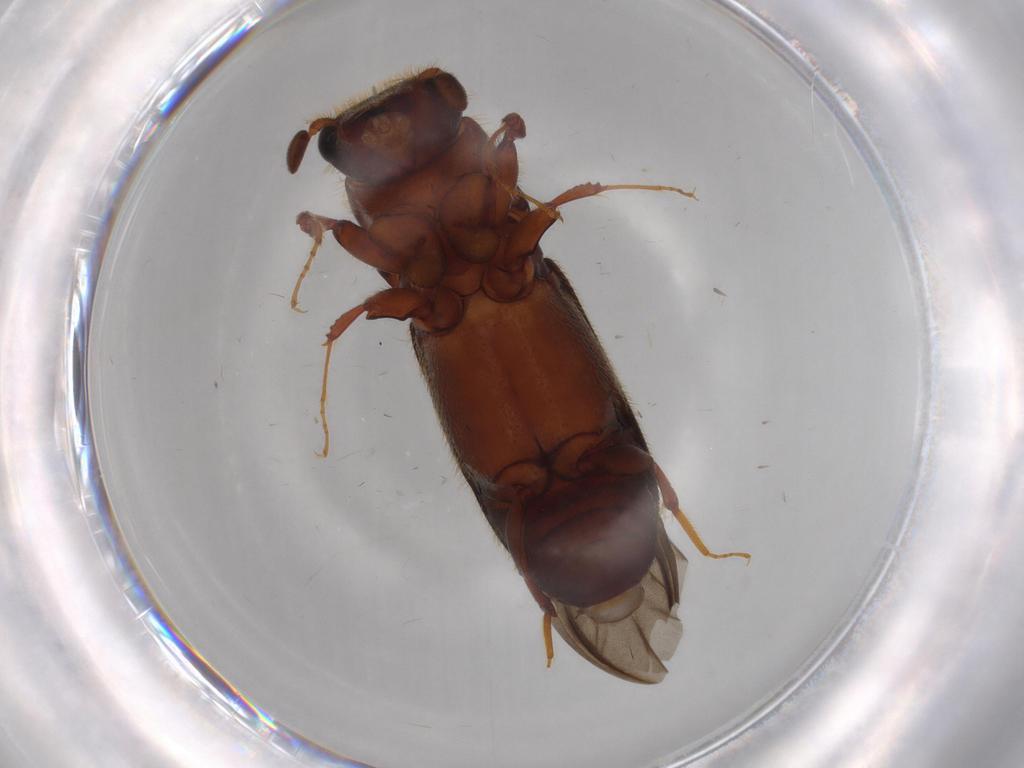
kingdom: Animalia
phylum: Arthropoda
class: Insecta
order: Coleoptera
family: Curculionidae
